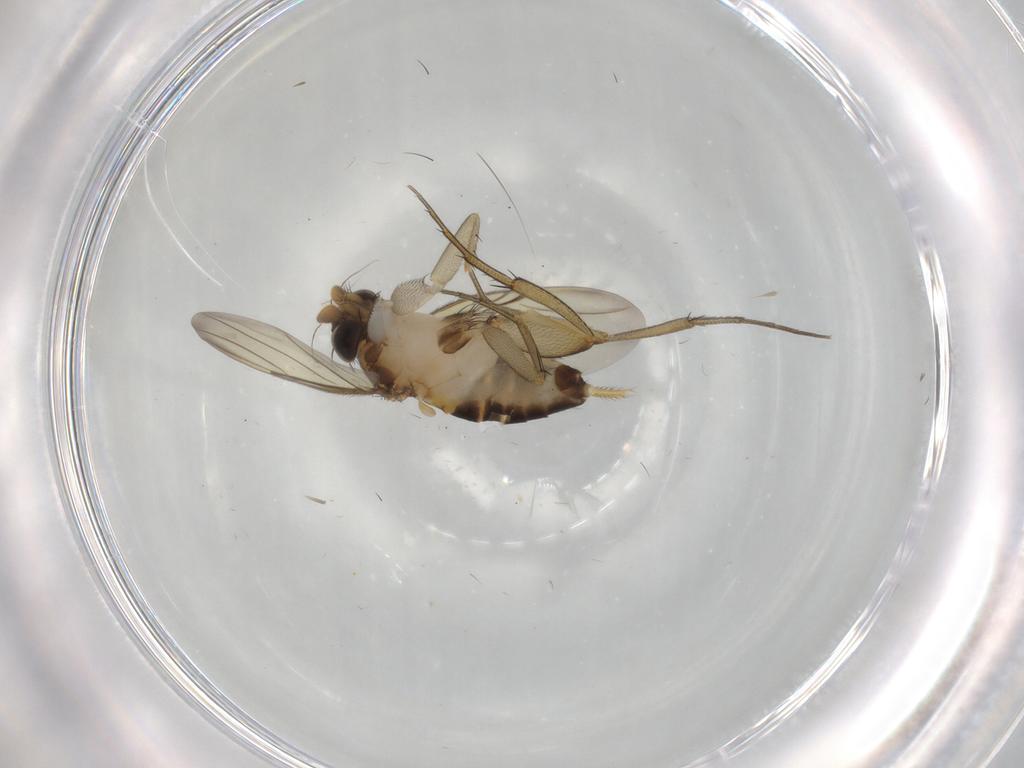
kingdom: Animalia
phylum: Arthropoda
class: Insecta
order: Diptera
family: Phoridae
